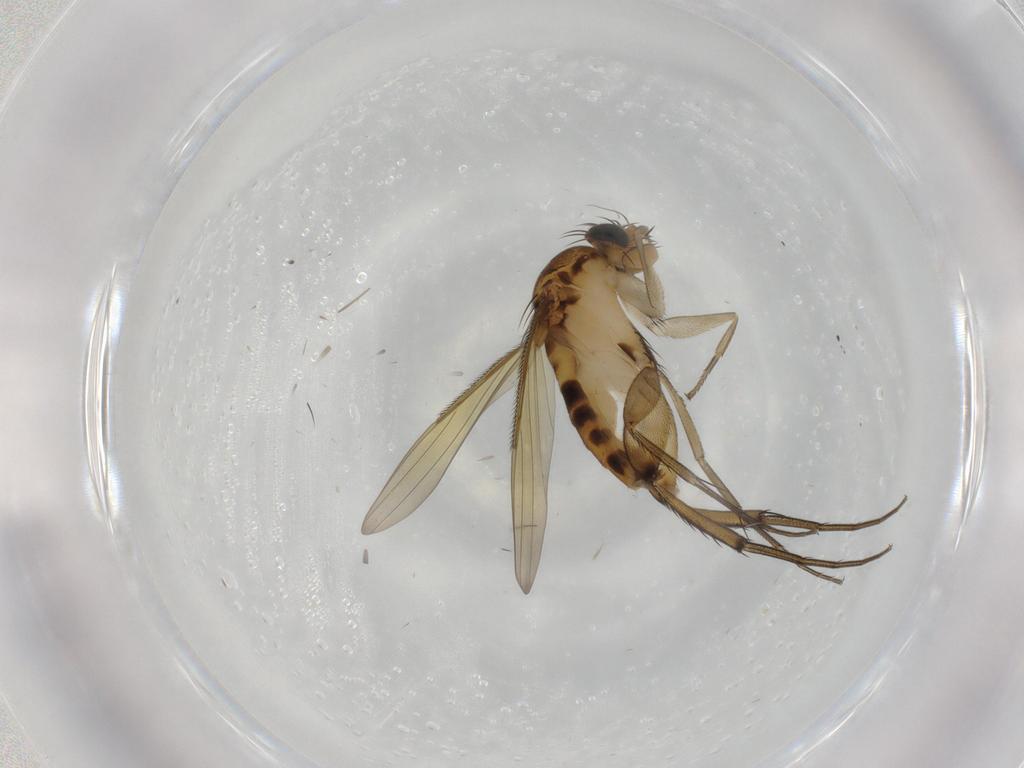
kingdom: Animalia
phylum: Arthropoda
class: Insecta
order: Diptera
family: Phoridae
